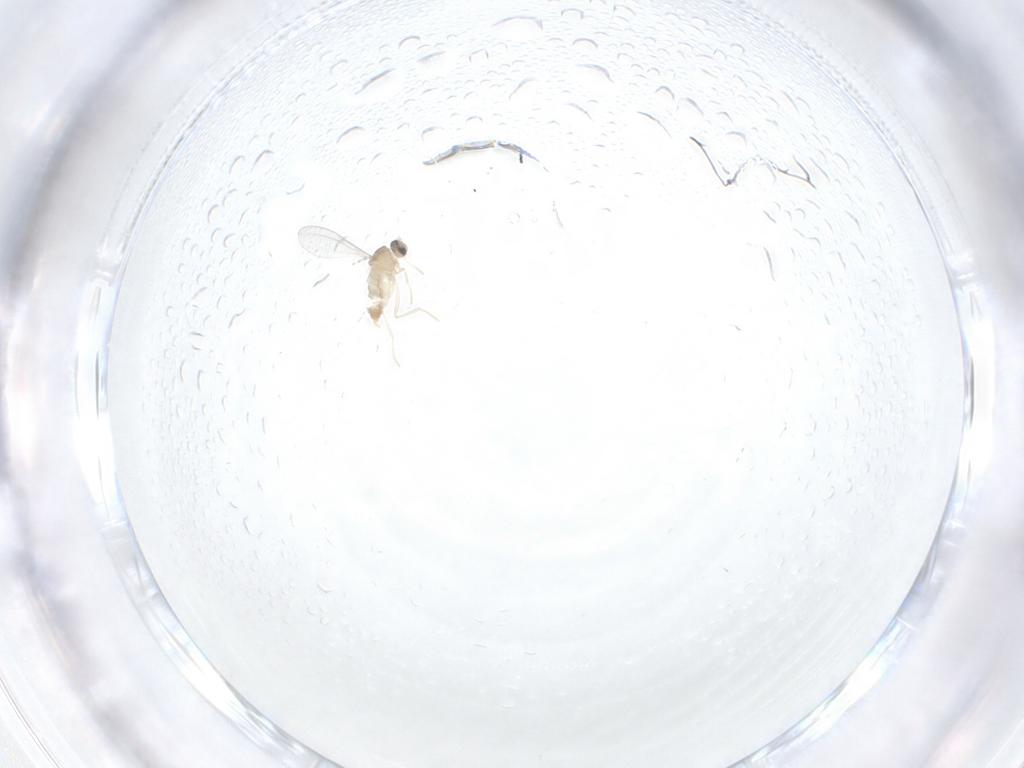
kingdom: Animalia
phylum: Arthropoda
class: Insecta
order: Diptera
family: Cecidomyiidae
